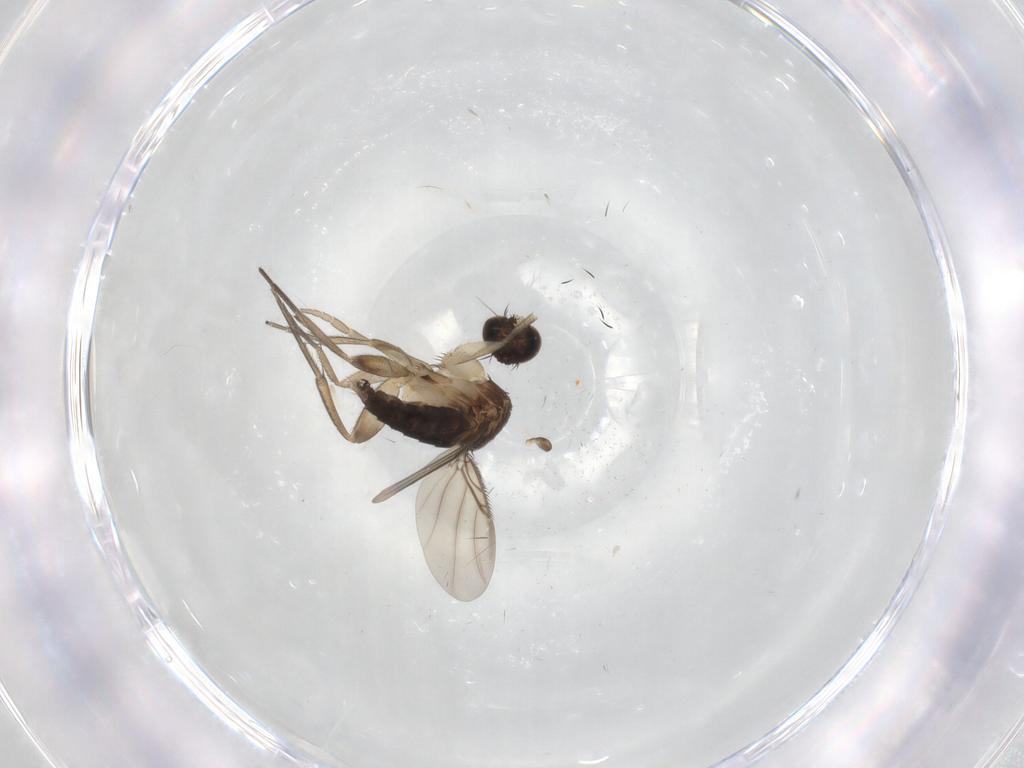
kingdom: Animalia
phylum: Arthropoda
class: Insecta
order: Diptera
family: Phoridae
